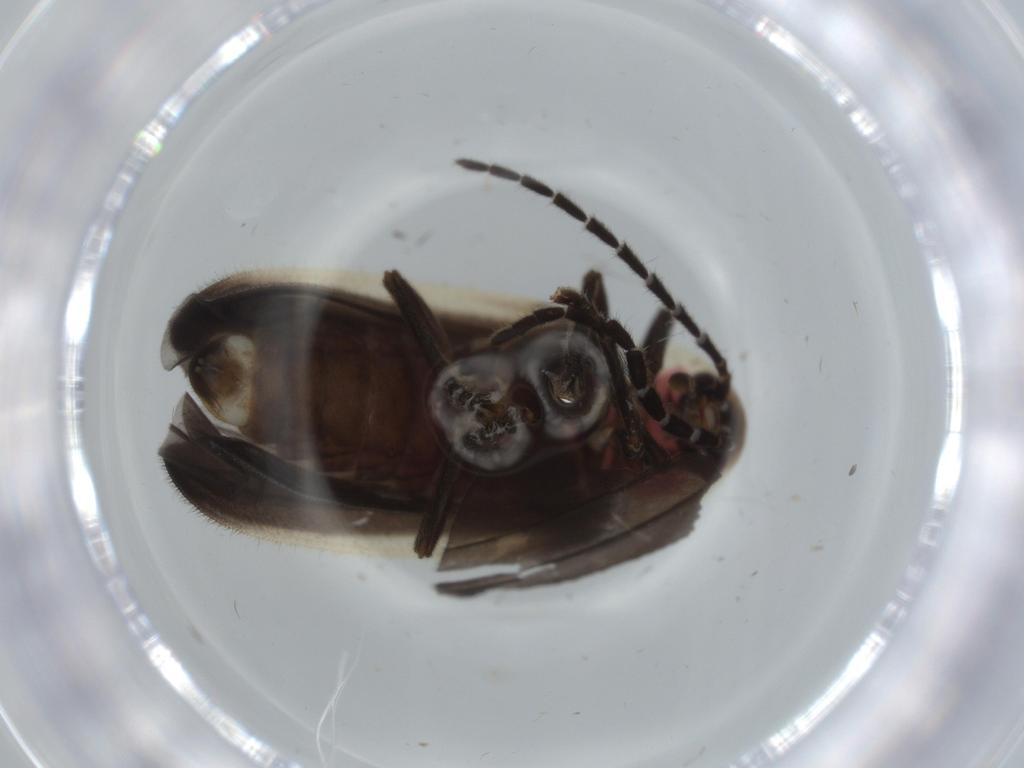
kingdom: Animalia
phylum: Arthropoda
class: Insecta
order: Coleoptera
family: Lampyridae
